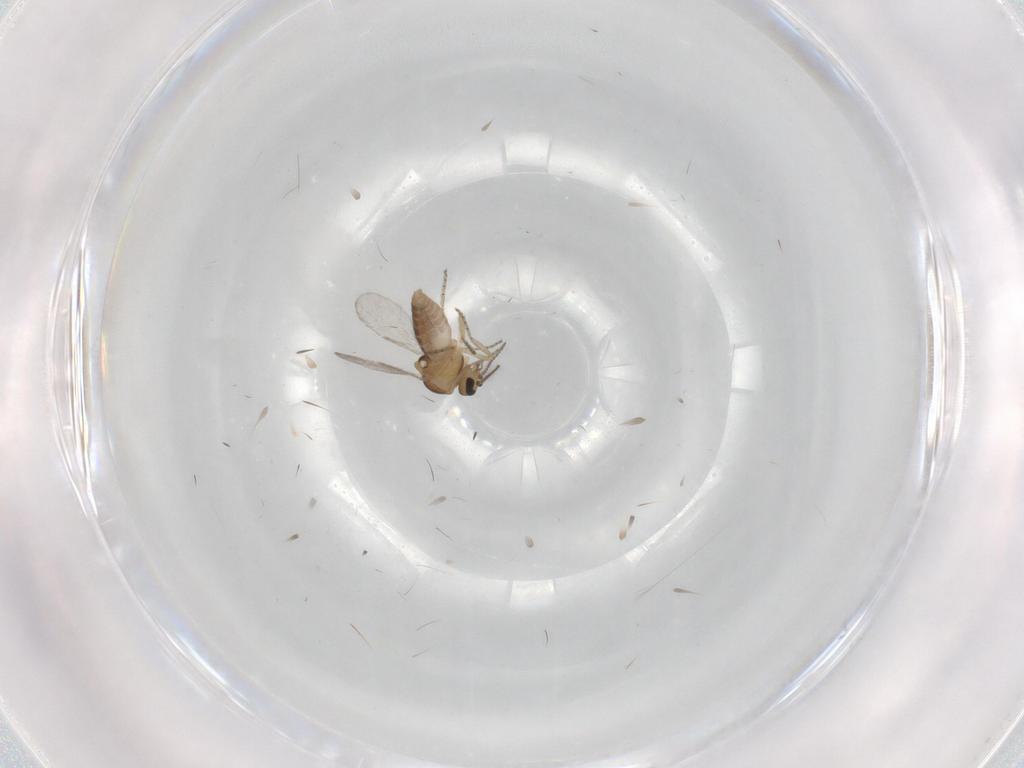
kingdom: Animalia
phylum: Arthropoda
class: Insecta
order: Diptera
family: Ceratopogonidae
